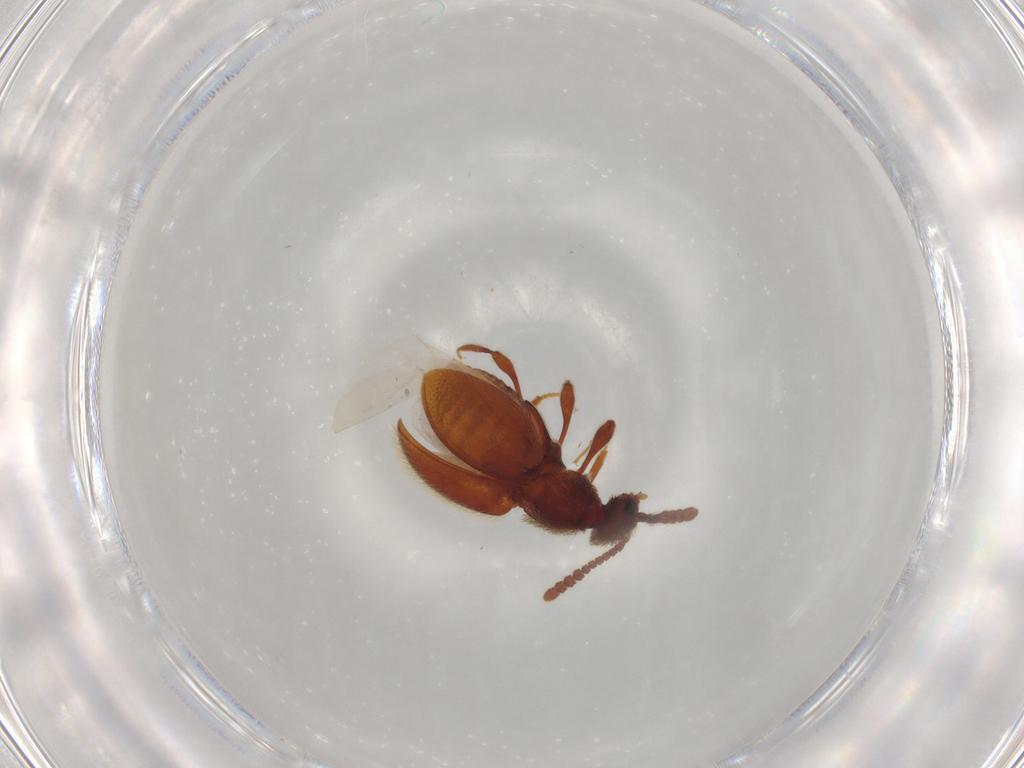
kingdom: Animalia
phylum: Arthropoda
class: Insecta
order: Coleoptera
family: Staphylinidae
